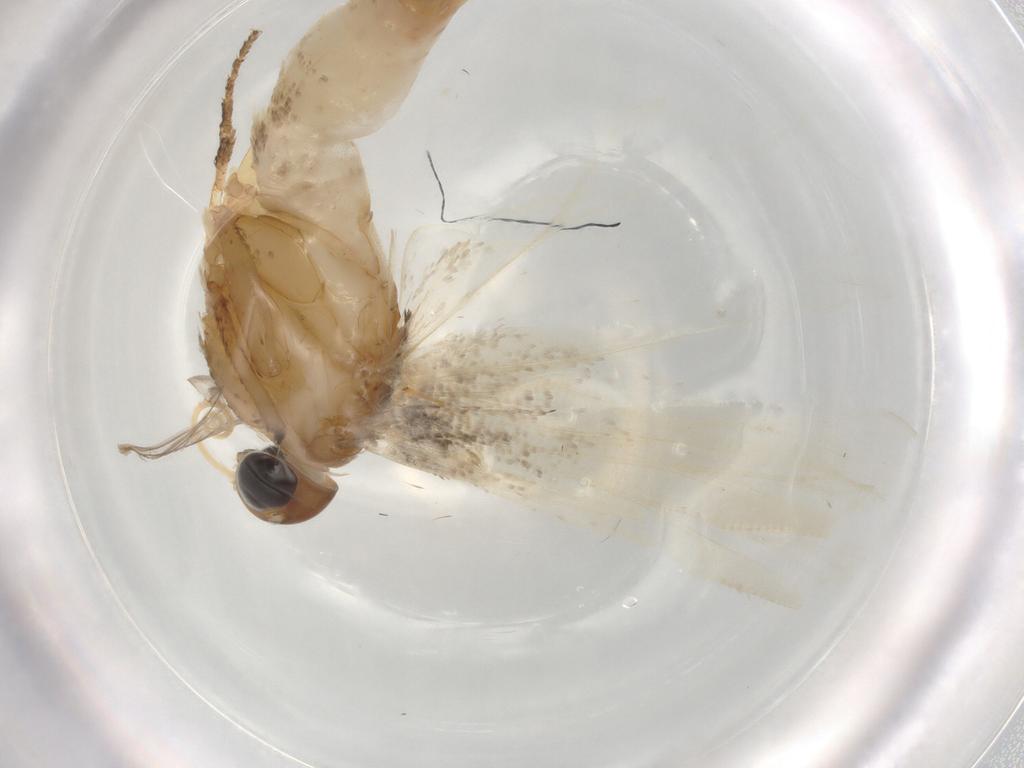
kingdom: Animalia
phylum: Arthropoda
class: Insecta
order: Lepidoptera
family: Gelechiidae
